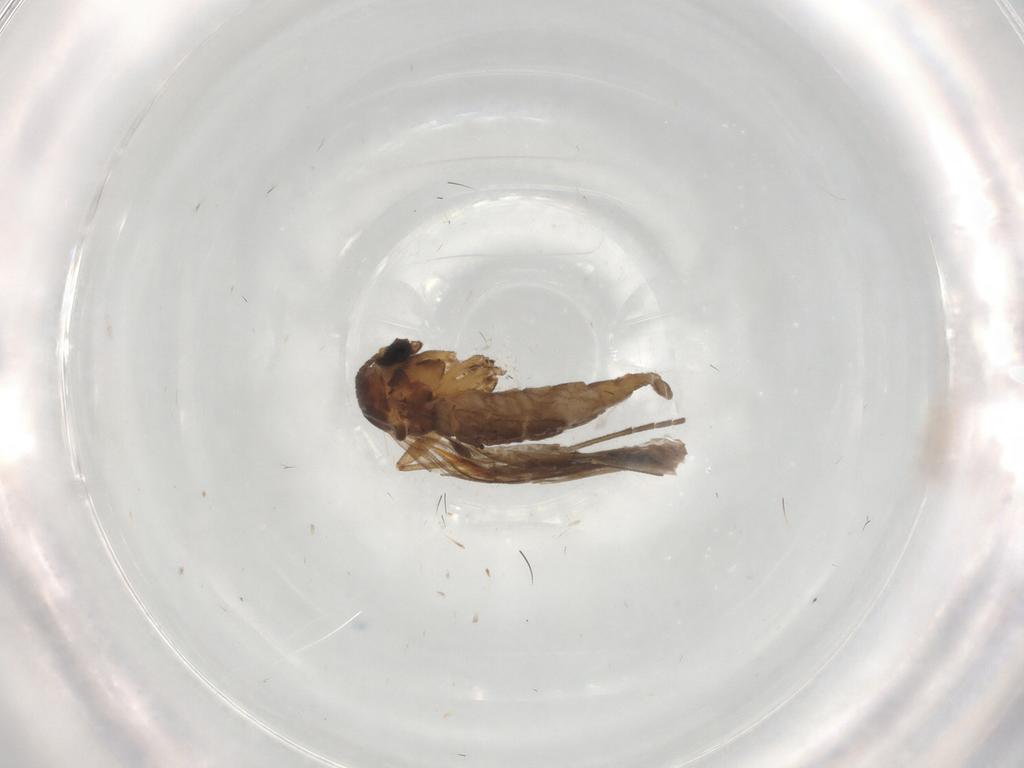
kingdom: Animalia
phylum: Arthropoda
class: Insecta
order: Diptera
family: Sciaridae
